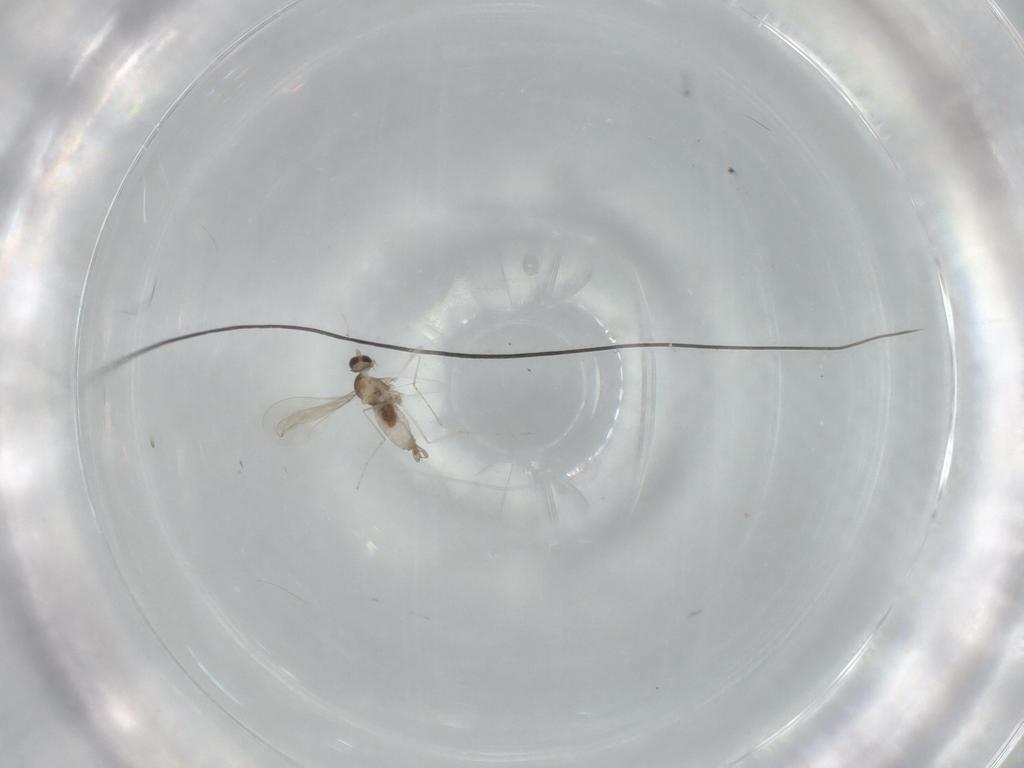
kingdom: Animalia
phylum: Arthropoda
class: Insecta
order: Diptera
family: Cecidomyiidae
